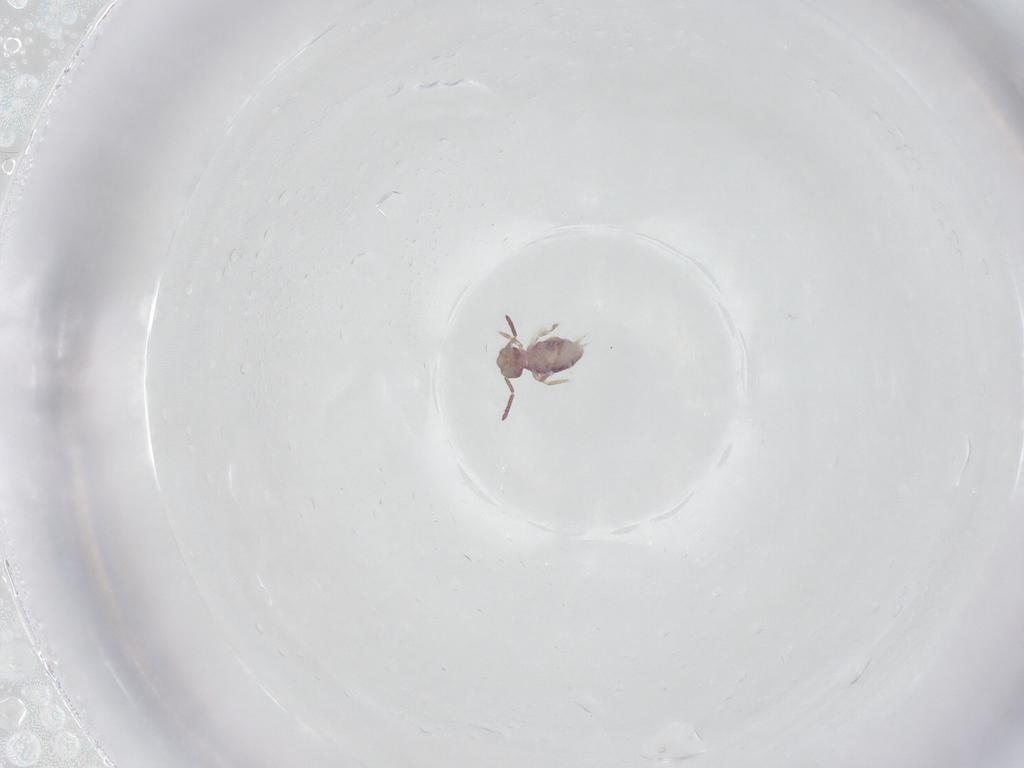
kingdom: Animalia
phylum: Arthropoda
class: Collembola
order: Symphypleona
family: Dicyrtomidae
